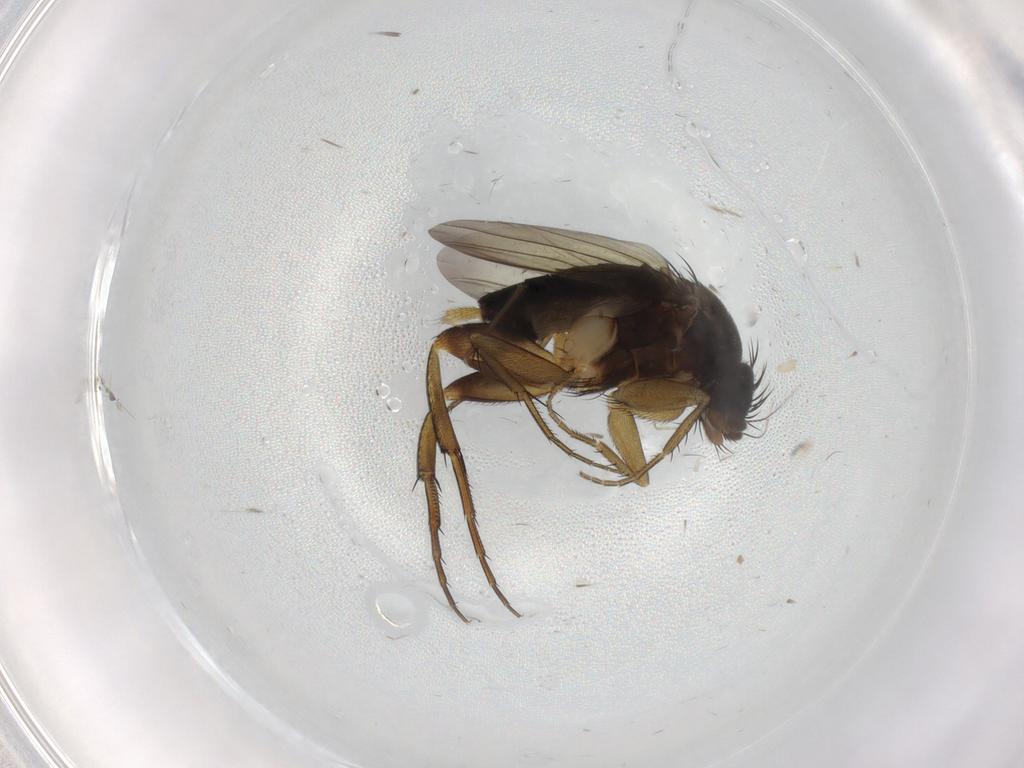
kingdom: Animalia
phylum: Arthropoda
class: Insecta
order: Diptera
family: Phoridae
